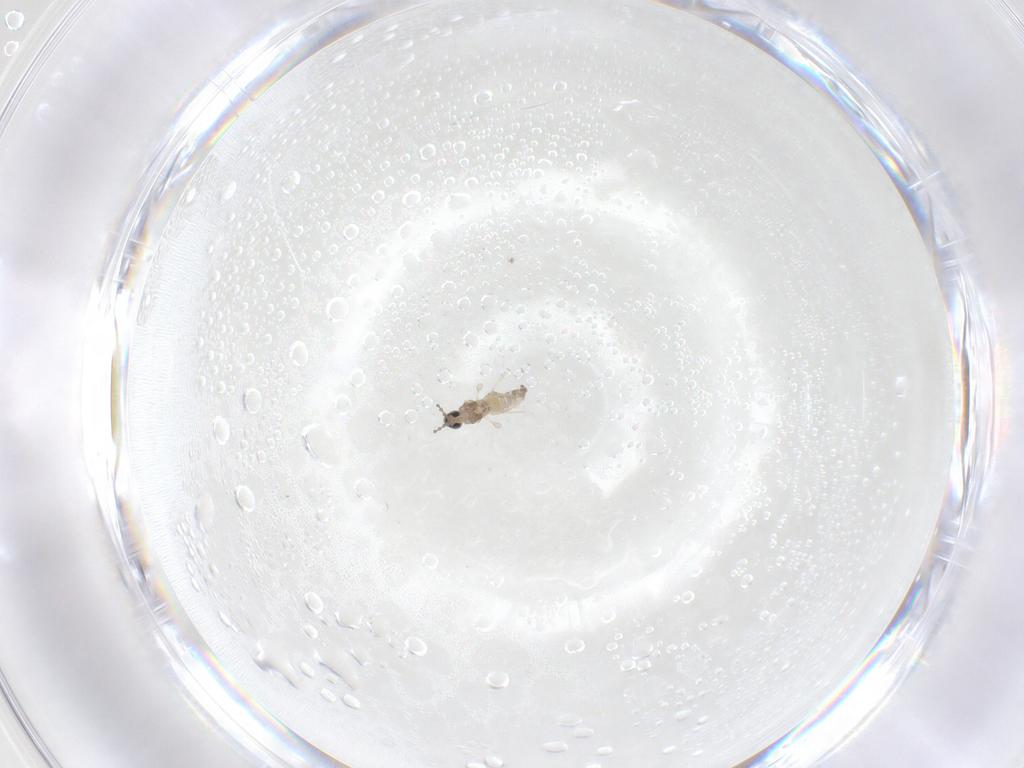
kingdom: Animalia
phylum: Arthropoda
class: Insecta
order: Diptera
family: Cecidomyiidae
